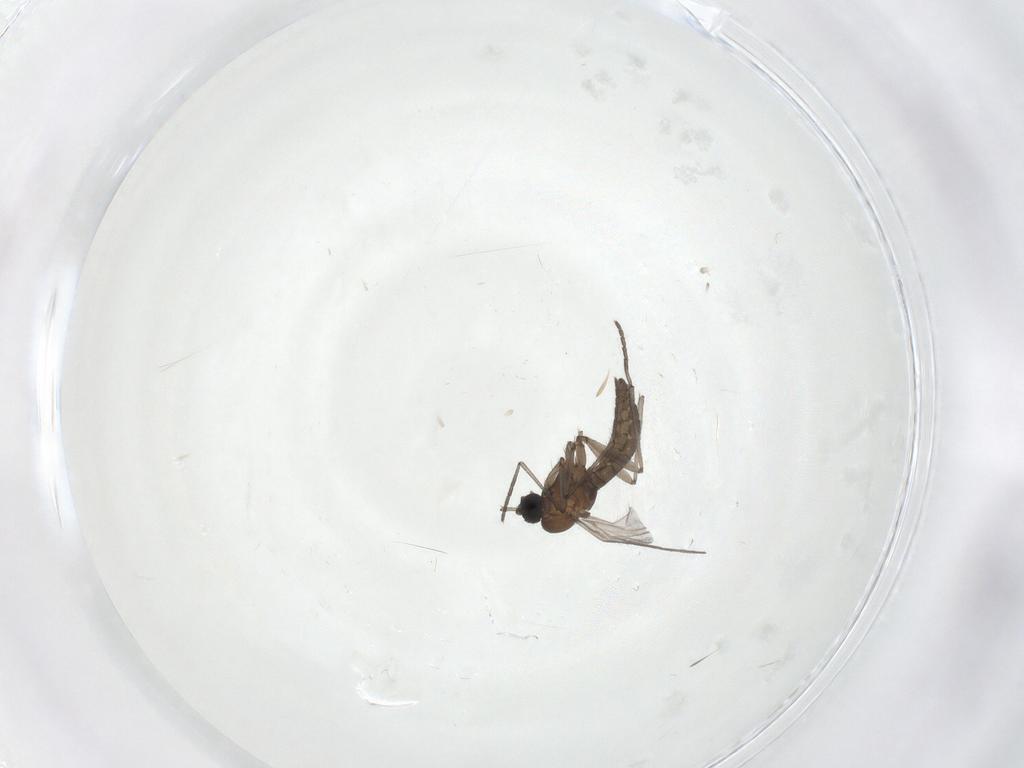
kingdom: Animalia
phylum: Arthropoda
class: Insecta
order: Diptera
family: Sciaridae
